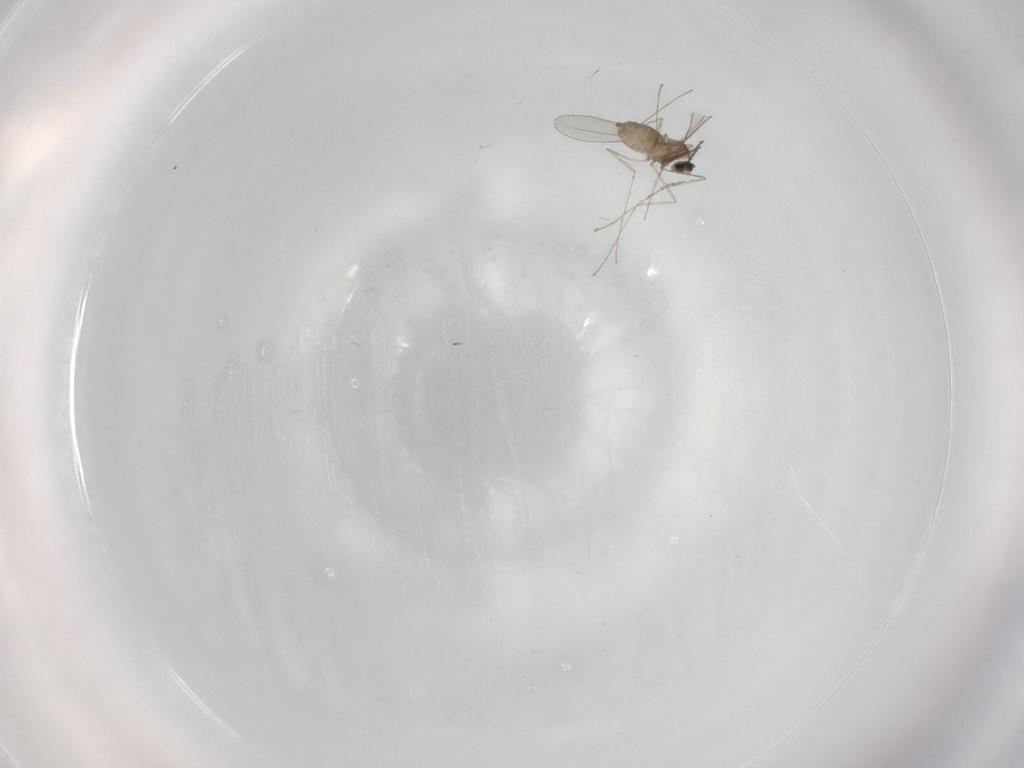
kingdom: Animalia
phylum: Arthropoda
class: Insecta
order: Diptera
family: Cecidomyiidae
